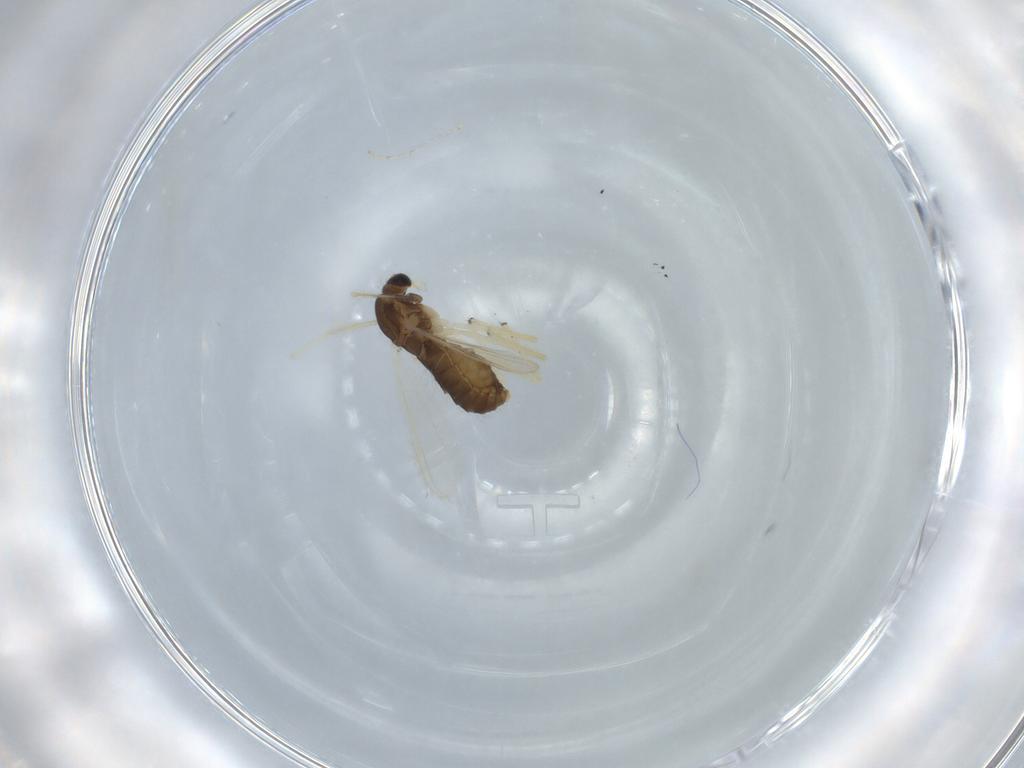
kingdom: Animalia
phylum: Arthropoda
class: Insecta
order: Diptera
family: Chironomidae
